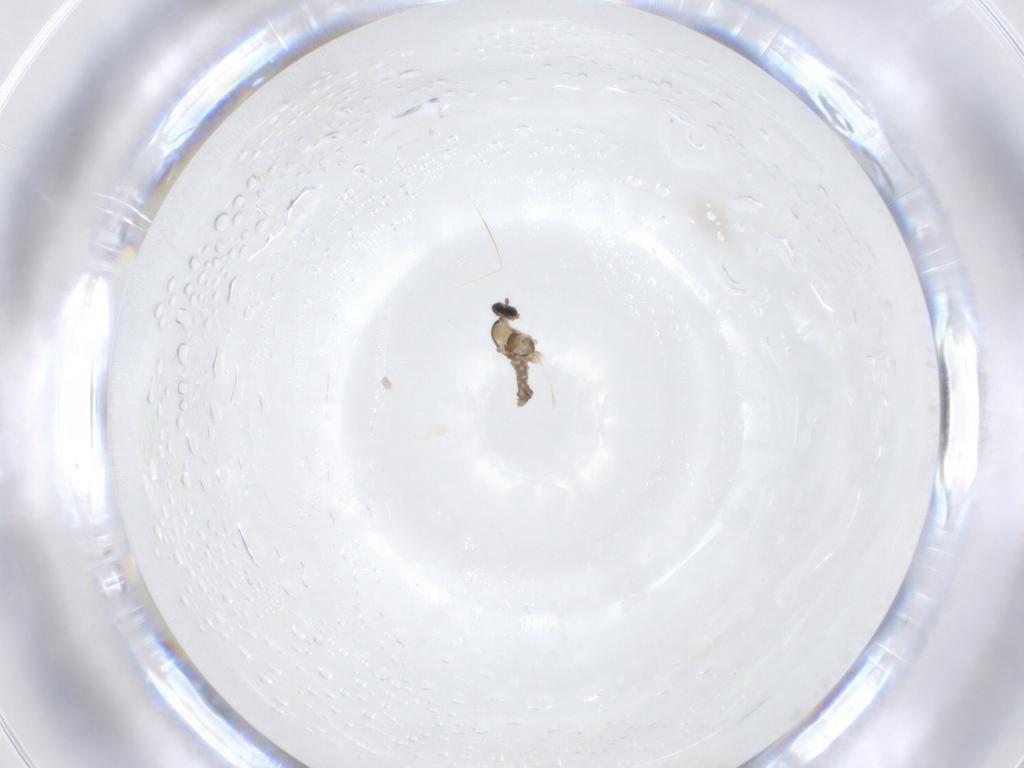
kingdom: Animalia
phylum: Arthropoda
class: Insecta
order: Diptera
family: Cecidomyiidae
